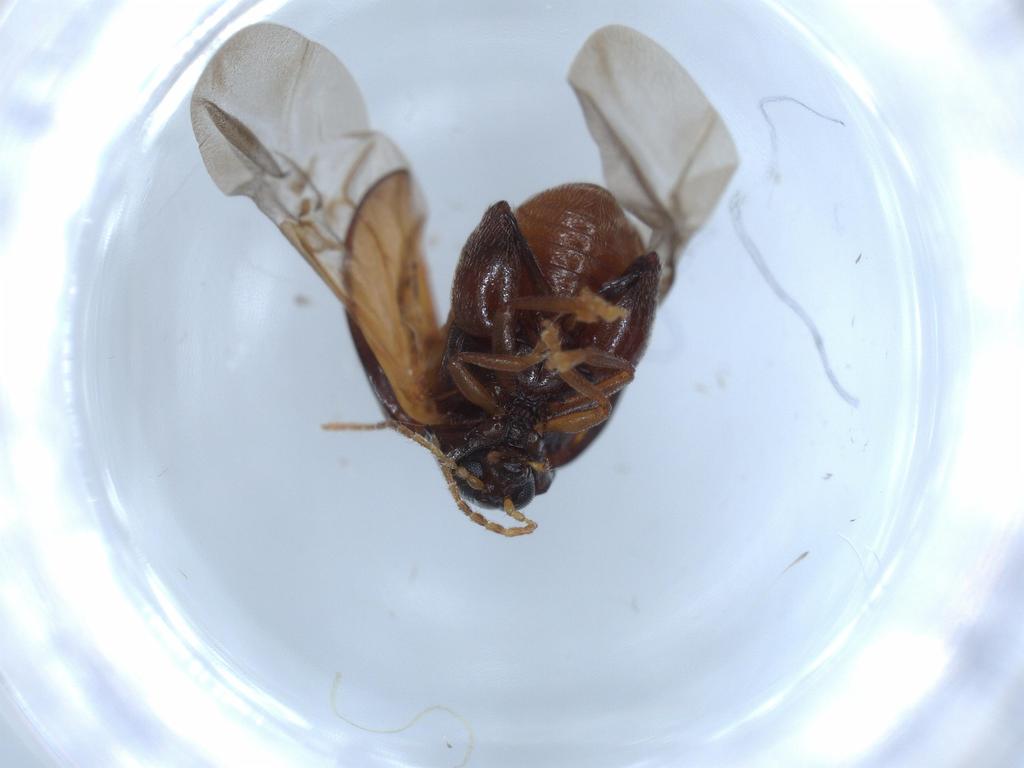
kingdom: Animalia
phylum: Arthropoda
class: Insecta
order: Coleoptera
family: Chrysomelidae
